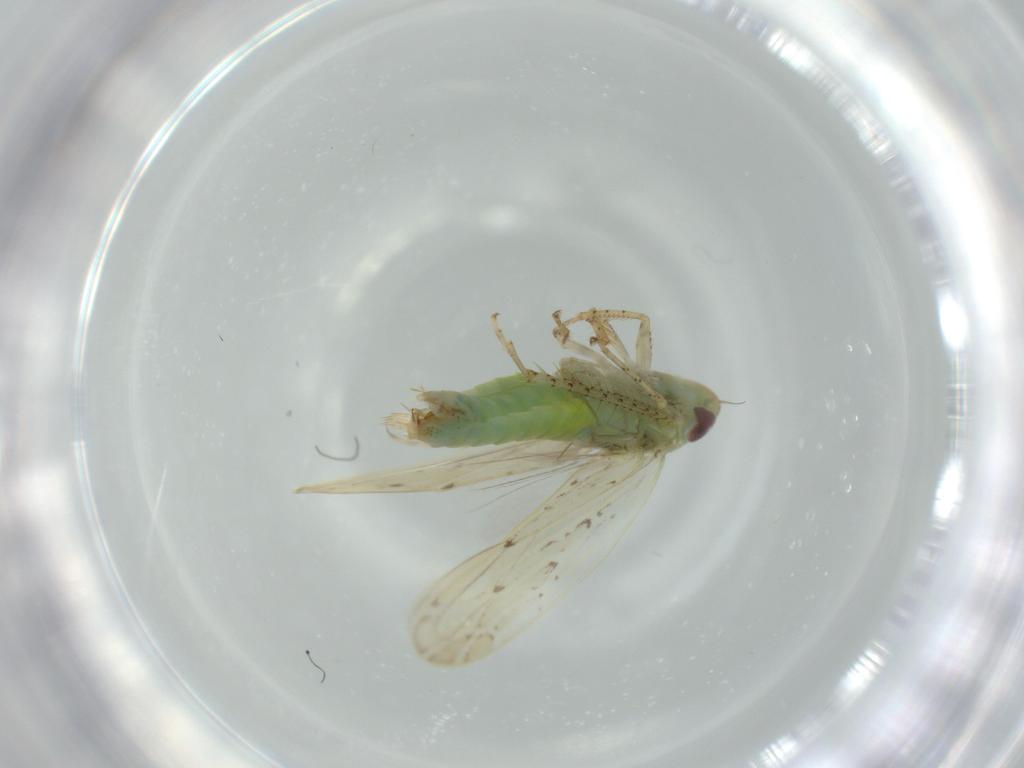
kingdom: Animalia
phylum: Arthropoda
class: Insecta
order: Hemiptera
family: Cicadellidae
